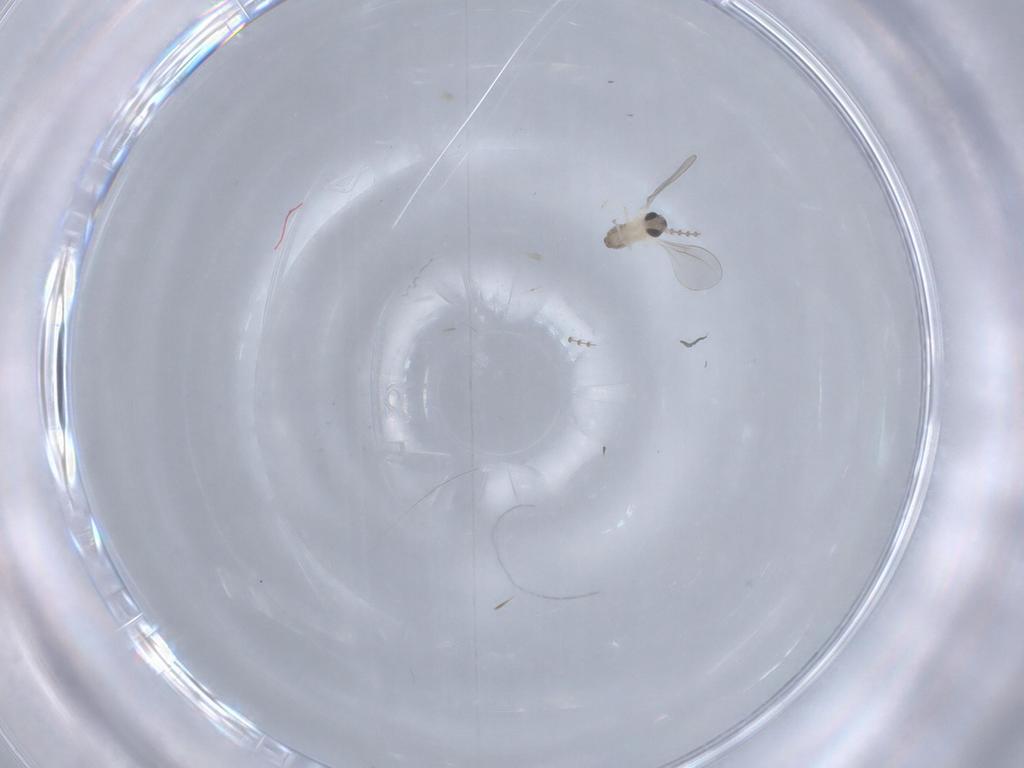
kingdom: Animalia
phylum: Arthropoda
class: Insecta
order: Diptera
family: Cecidomyiidae
